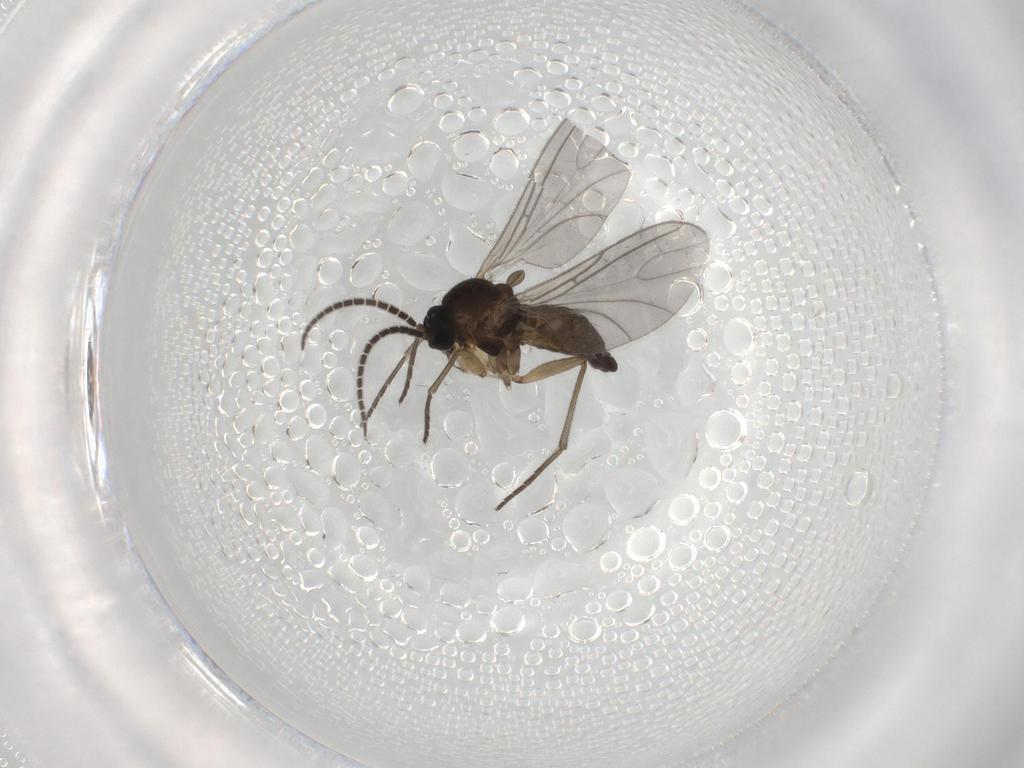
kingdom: Animalia
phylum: Arthropoda
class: Insecta
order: Diptera
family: Sciaridae
